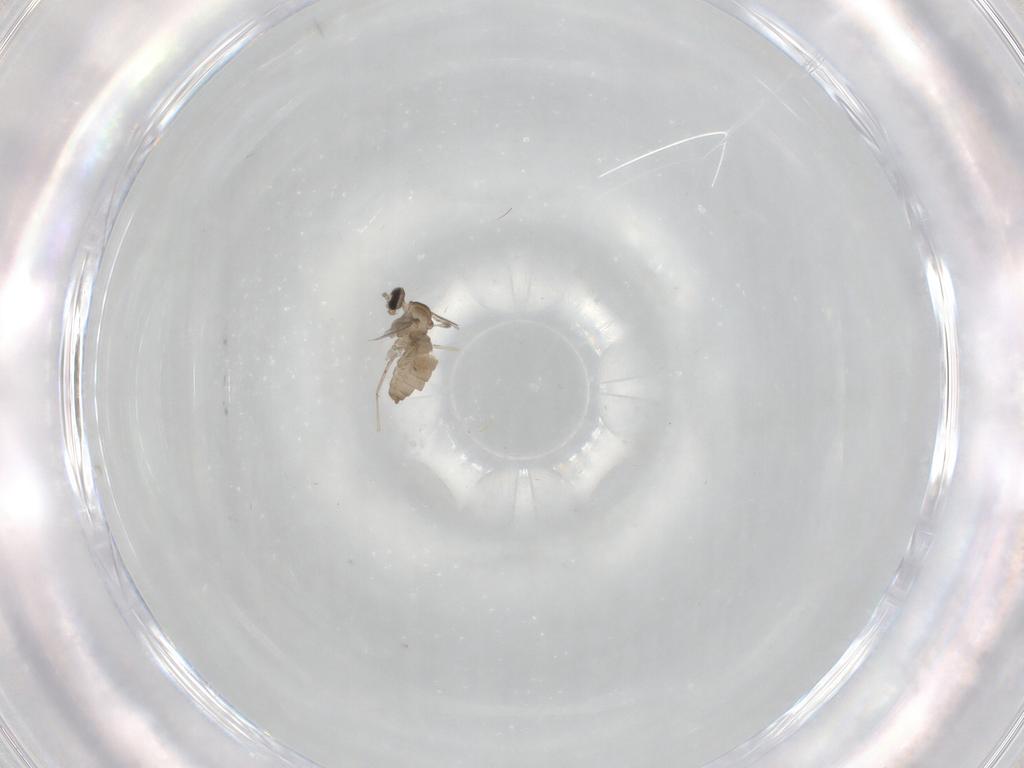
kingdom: Animalia
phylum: Arthropoda
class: Insecta
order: Diptera
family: Cecidomyiidae
